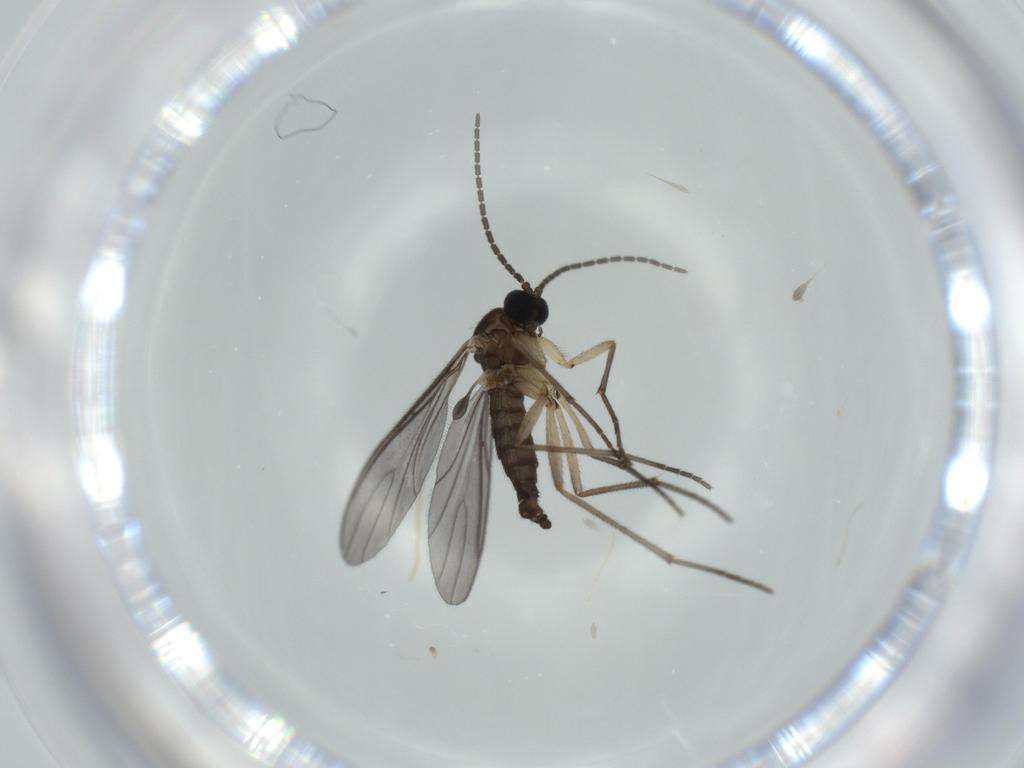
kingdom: Animalia
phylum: Arthropoda
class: Insecta
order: Diptera
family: Sciaridae
